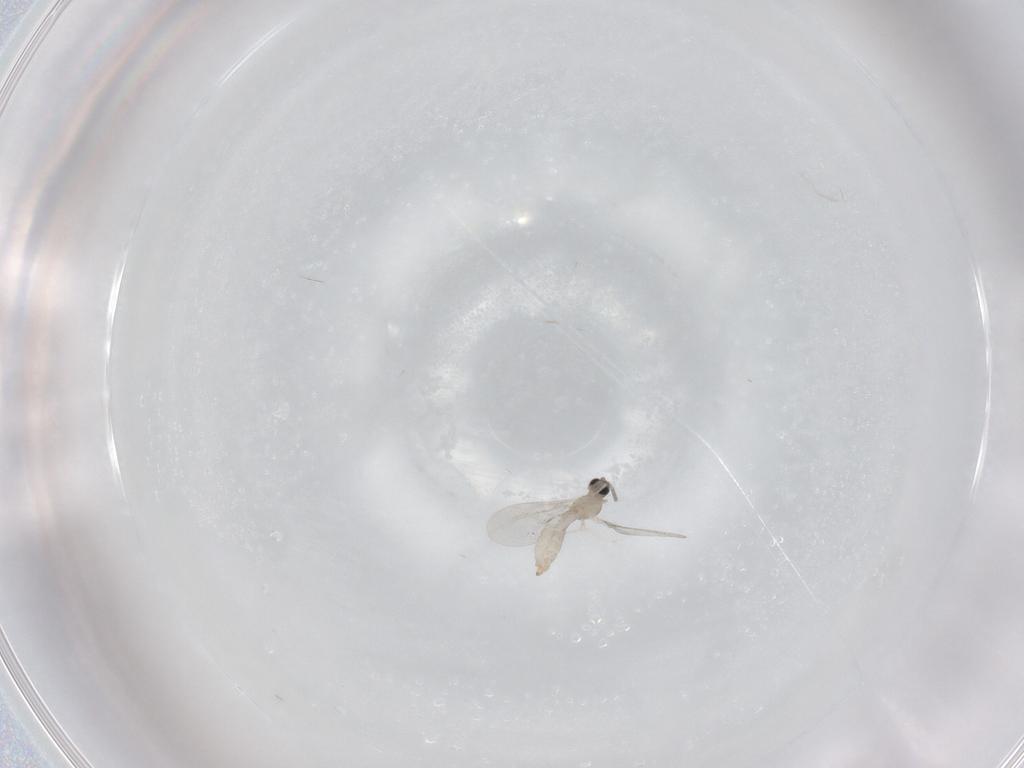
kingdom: Animalia
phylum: Arthropoda
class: Insecta
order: Diptera
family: Cecidomyiidae
